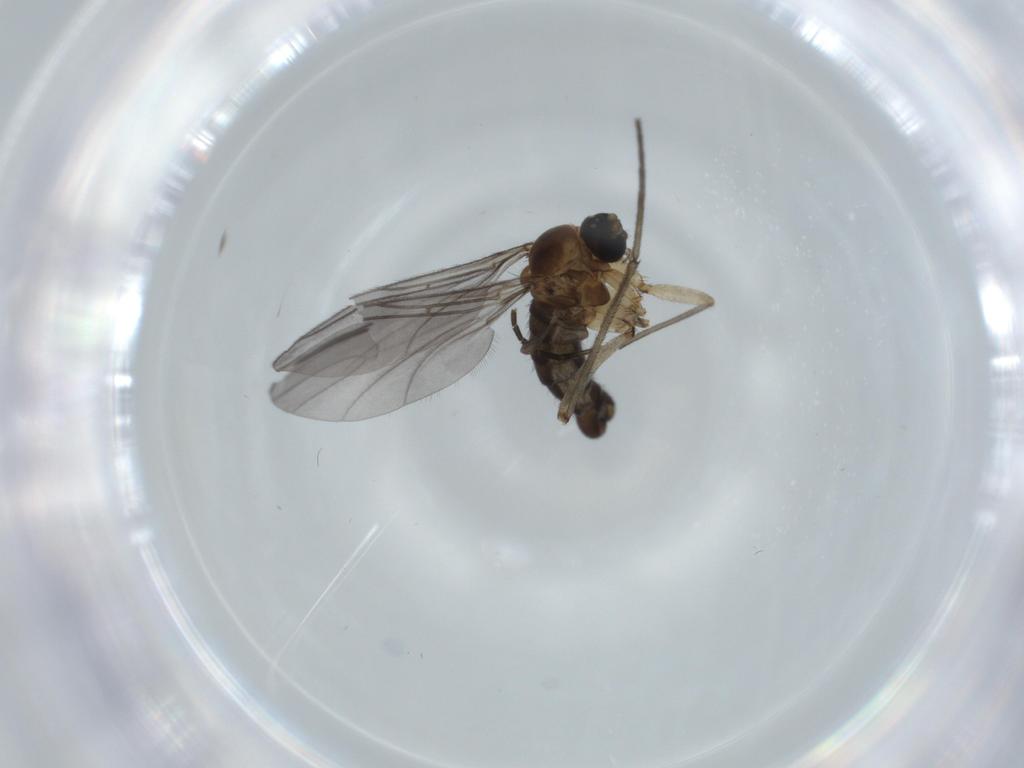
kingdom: Animalia
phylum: Arthropoda
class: Insecta
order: Diptera
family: Sciaridae
